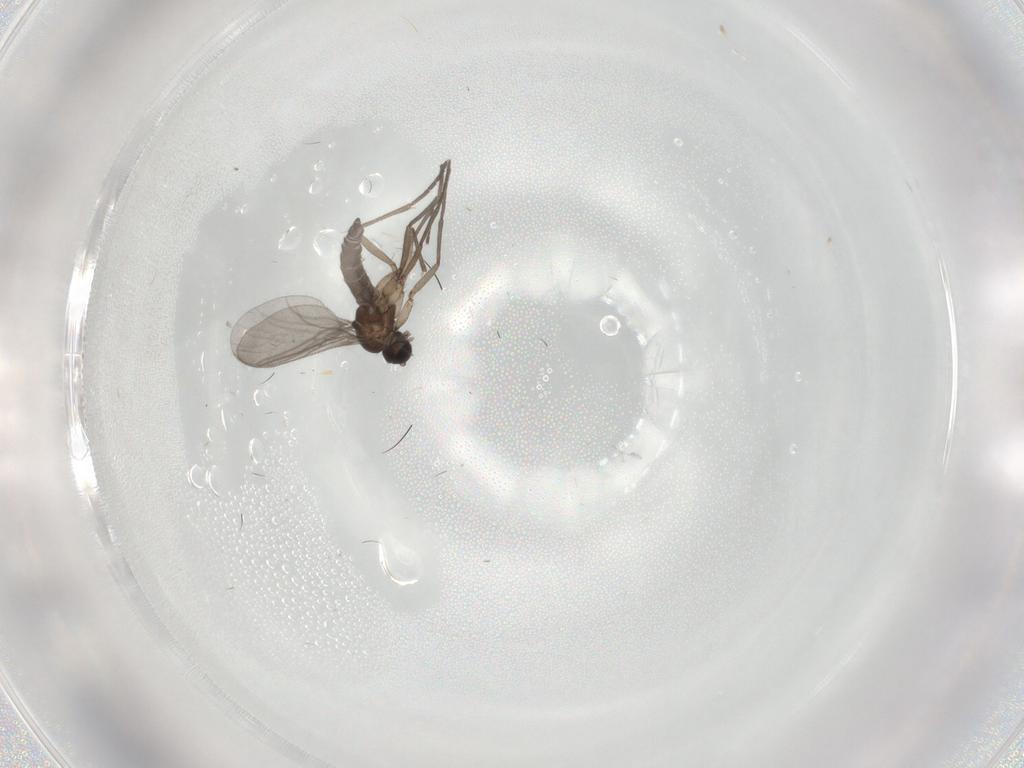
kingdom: Animalia
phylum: Arthropoda
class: Insecta
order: Diptera
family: Cecidomyiidae
